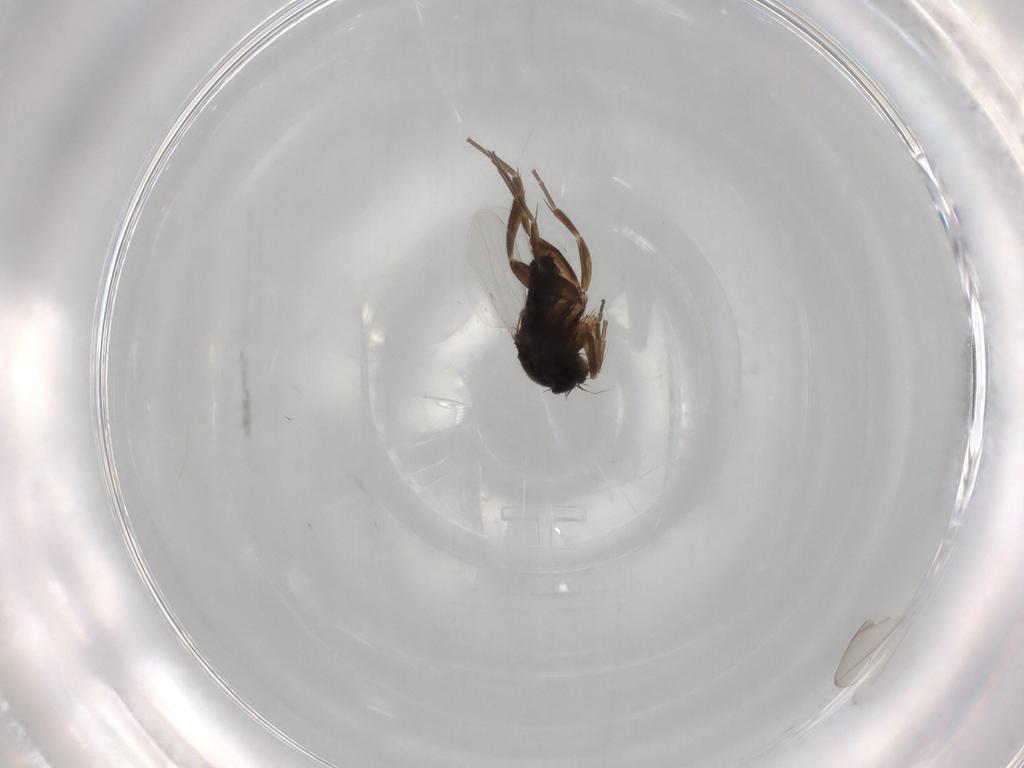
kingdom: Animalia
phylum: Arthropoda
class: Insecta
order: Diptera
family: Phoridae
